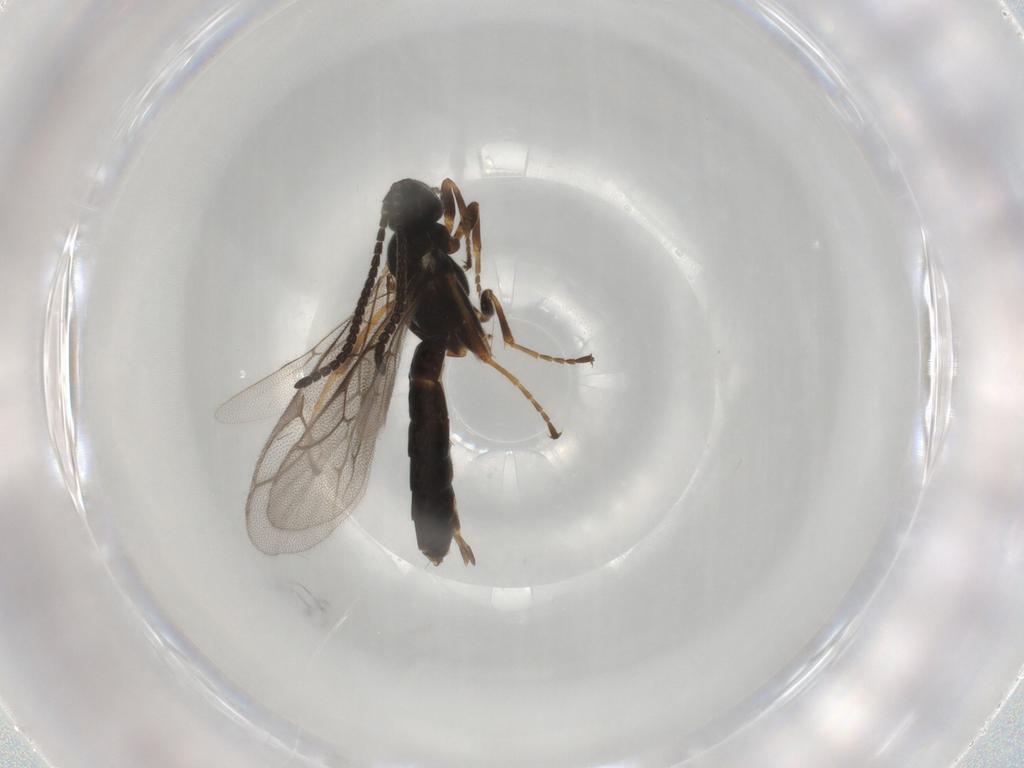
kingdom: Animalia
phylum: Arthropoda
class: Insecta
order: Hymenoptera
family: Ichneumonidae
